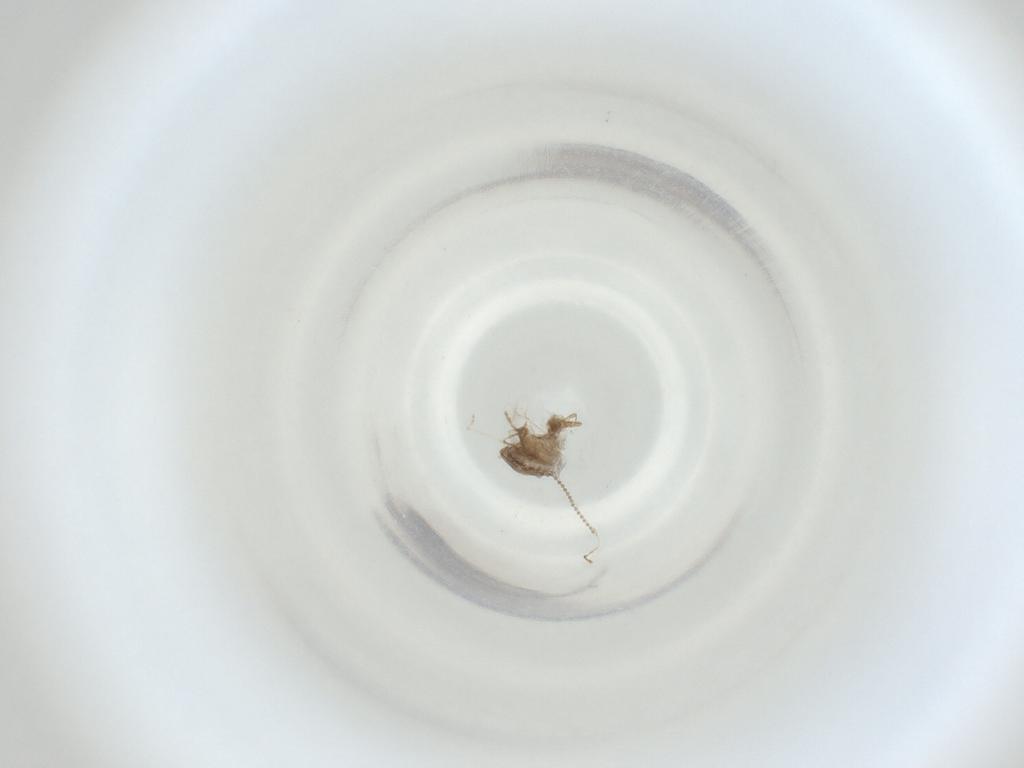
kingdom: Animalia
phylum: Arthropoda
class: Insecta
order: Diptera
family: Cecidomyiidae
